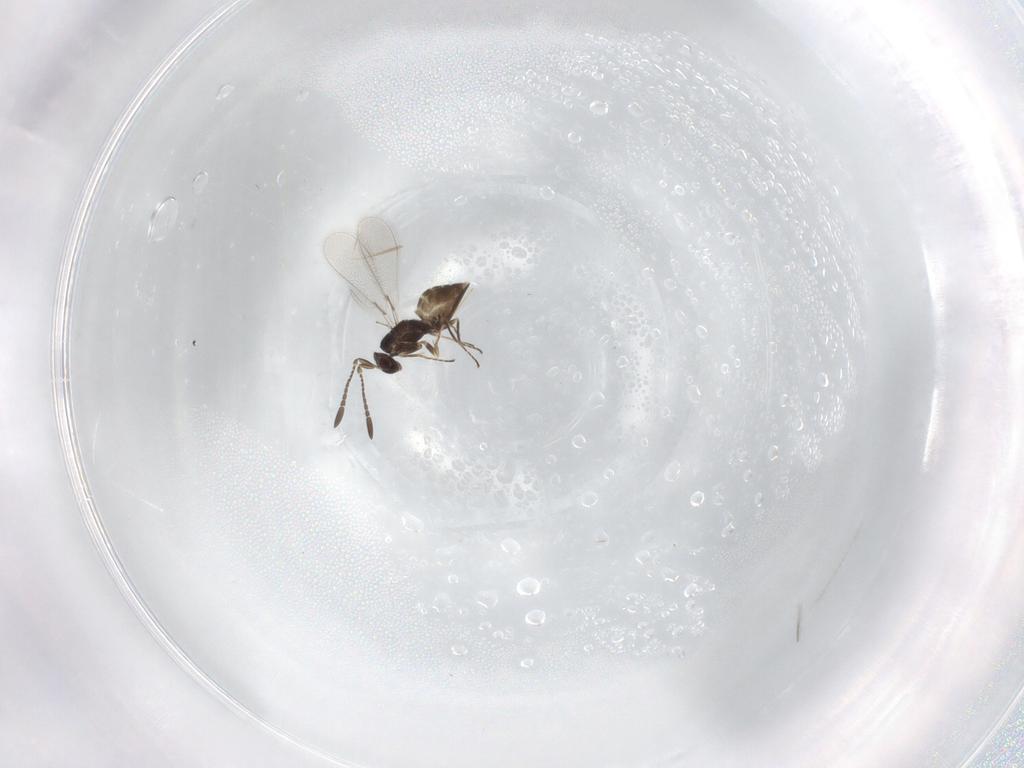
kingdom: Animalia
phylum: Arthropoda
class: Insecta
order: Hymenoptera
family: Mymaridae
